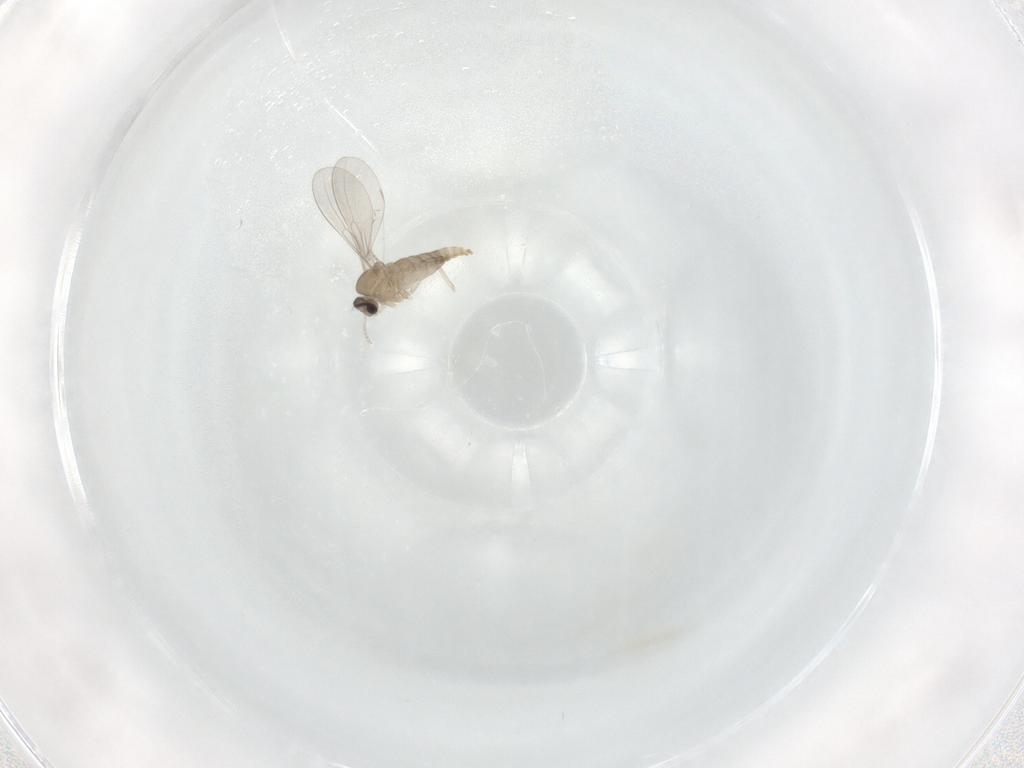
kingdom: Animalia
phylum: Arthropoda
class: Insecta
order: Diptera
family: Cecidomyiidae
